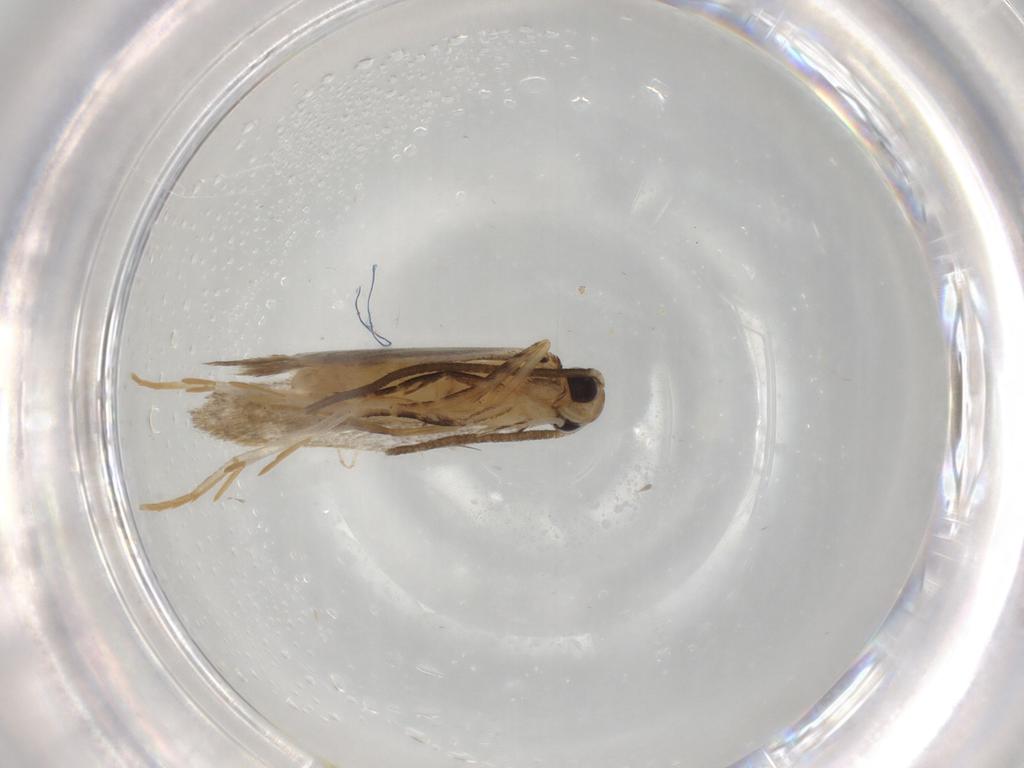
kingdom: Animalia
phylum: Arthropoda
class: Insecta
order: Lepidoptera
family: Autostichidae
